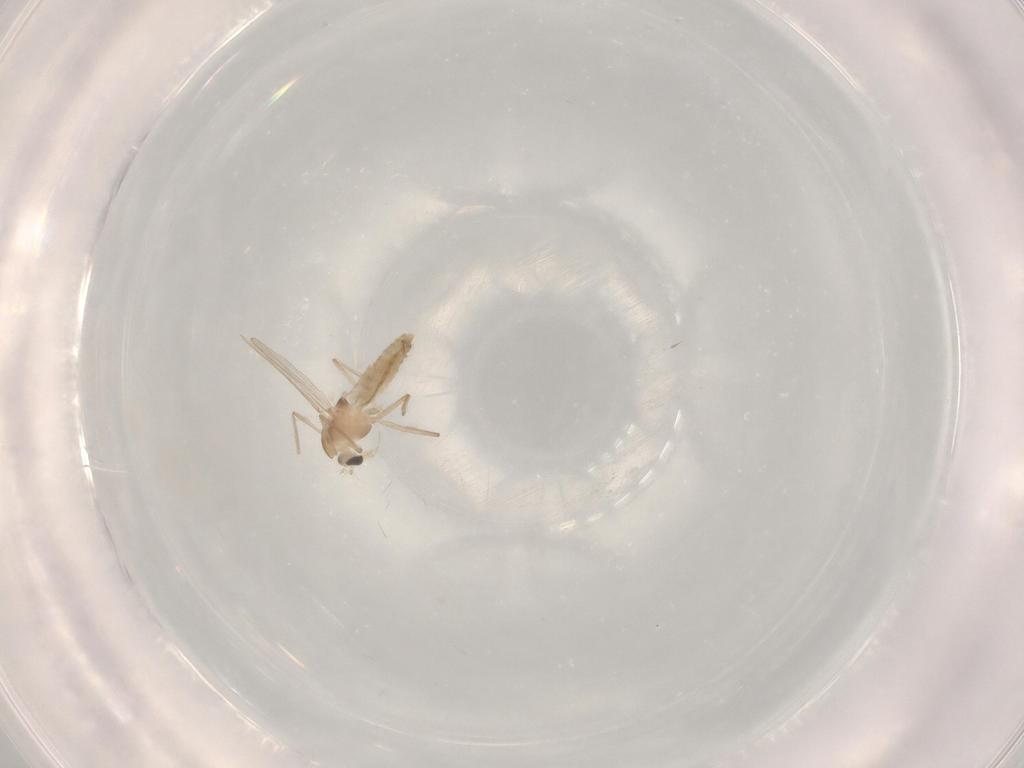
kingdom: Animalia
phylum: Arthropoda
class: Insecta
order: Diptera
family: Chironomidae
